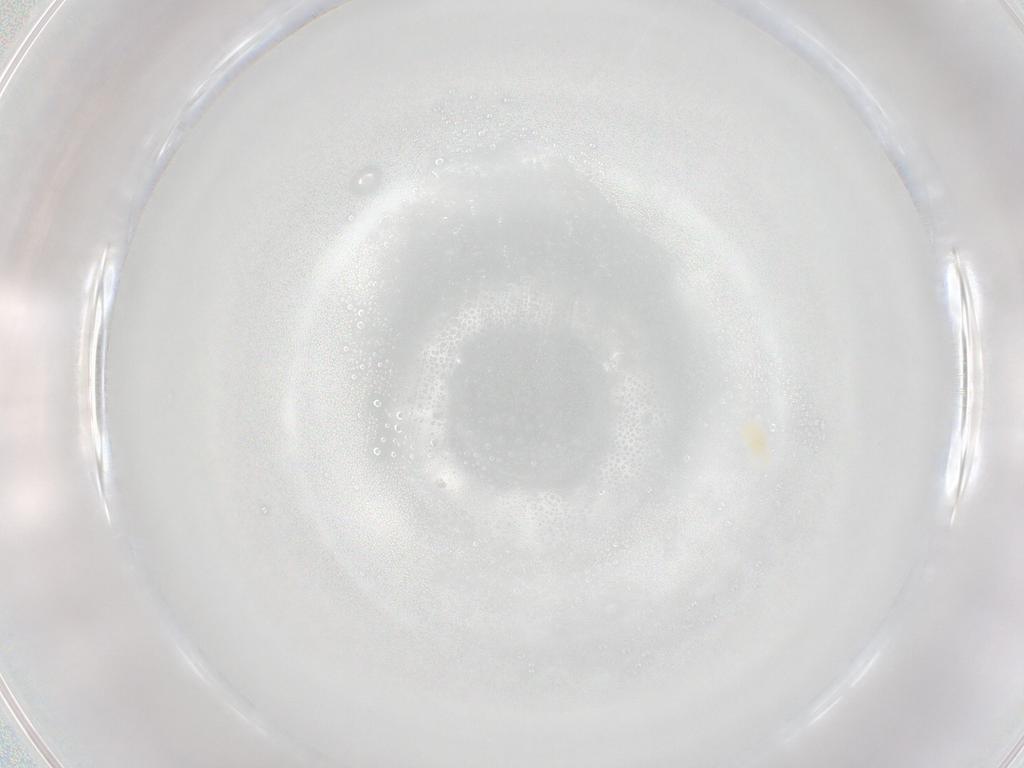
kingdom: Animalia
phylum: Arthropoda
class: Arachnida
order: Trombidiformes
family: Eupodidae
